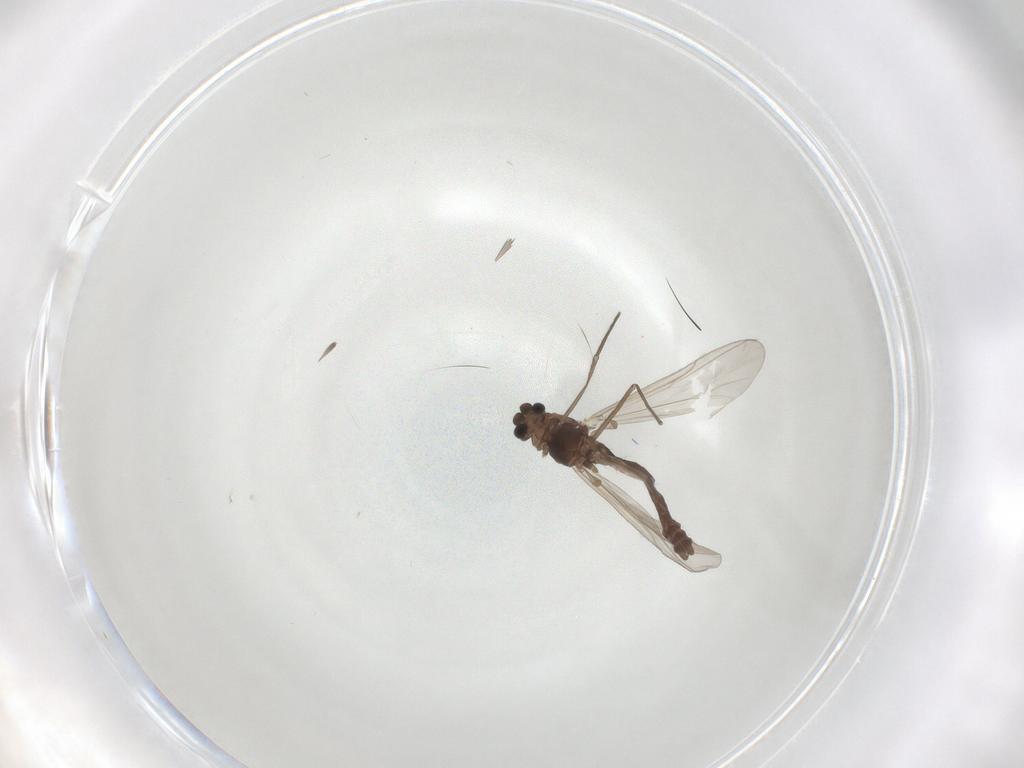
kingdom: Animalia
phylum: Arthropoda
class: Insecta
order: Diptera
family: Chironomidae
